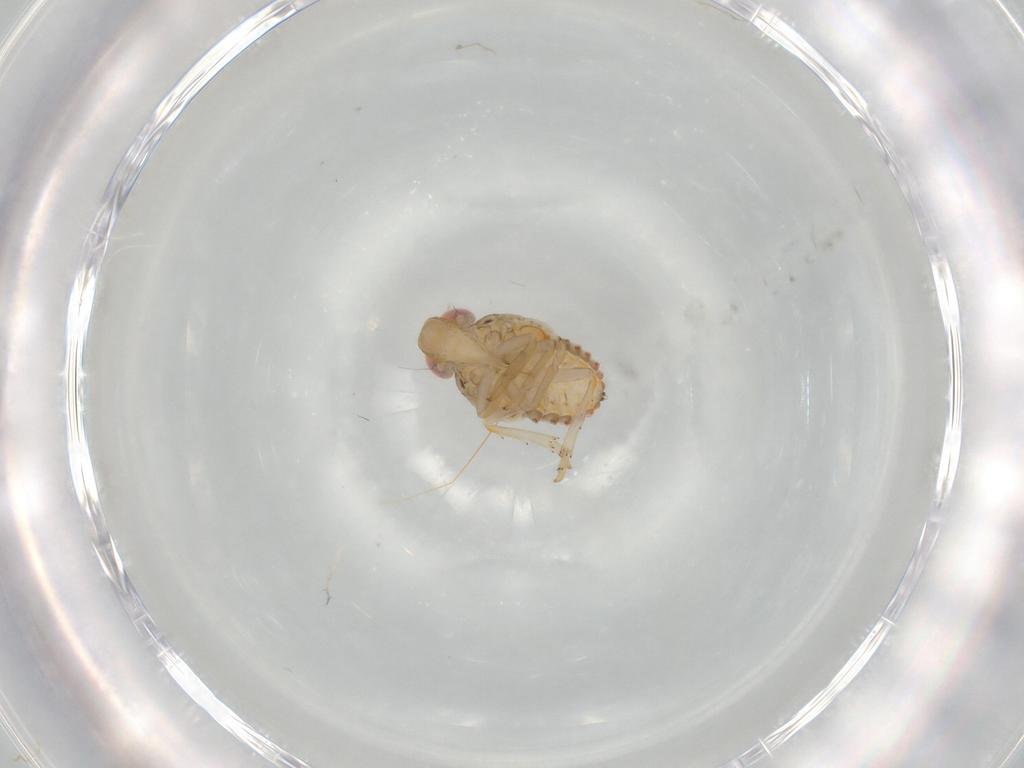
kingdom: Animalia
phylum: Arthropoda
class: Insecta
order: Hemiptera
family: Issidae
